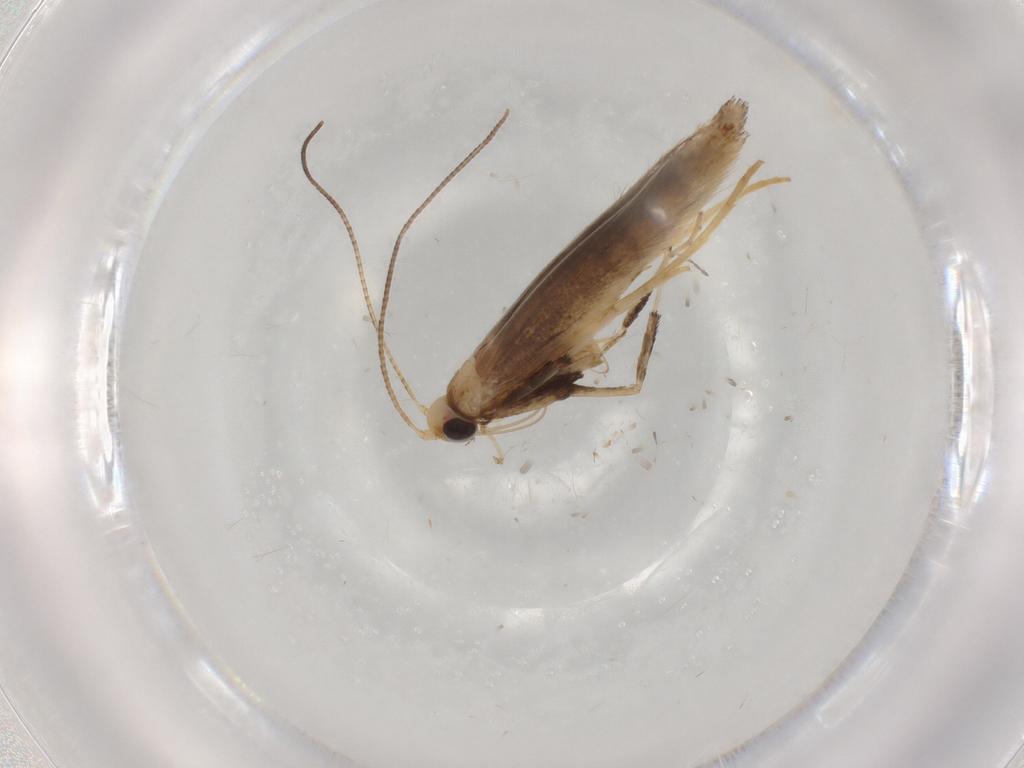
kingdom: Animalia
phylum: Arthropoda
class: Insecta
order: Lepidoptera
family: Gracillariidae
